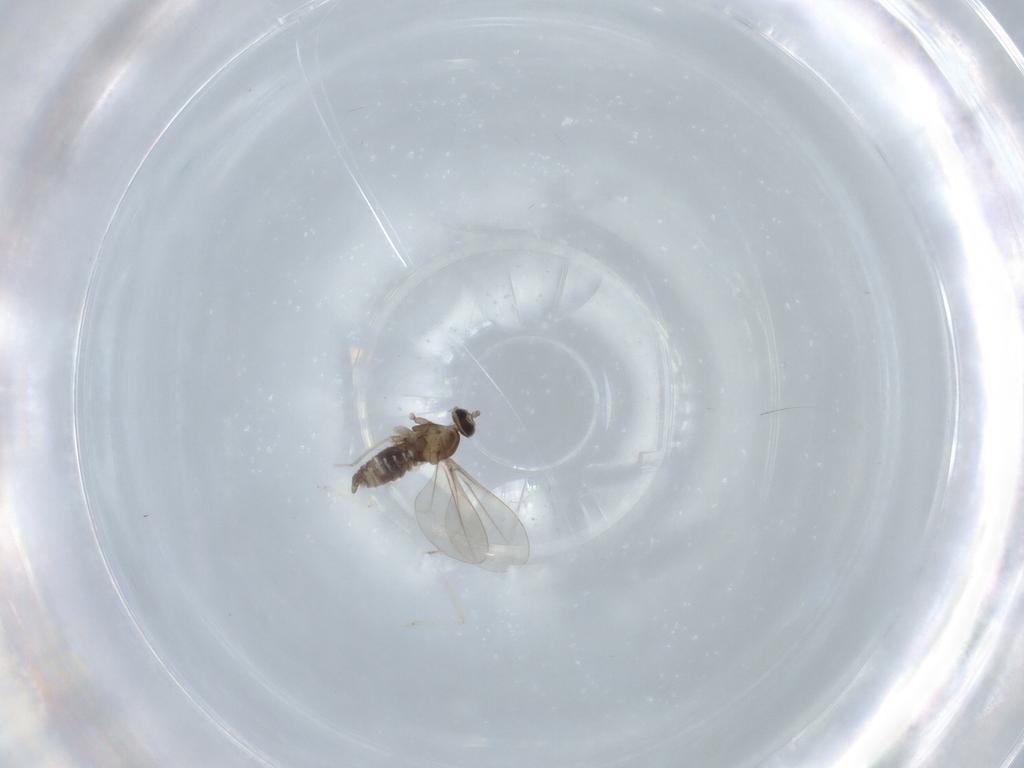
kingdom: Animalia
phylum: Arthropoda
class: Insecta
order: Diptera
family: Cecidomyiidae
